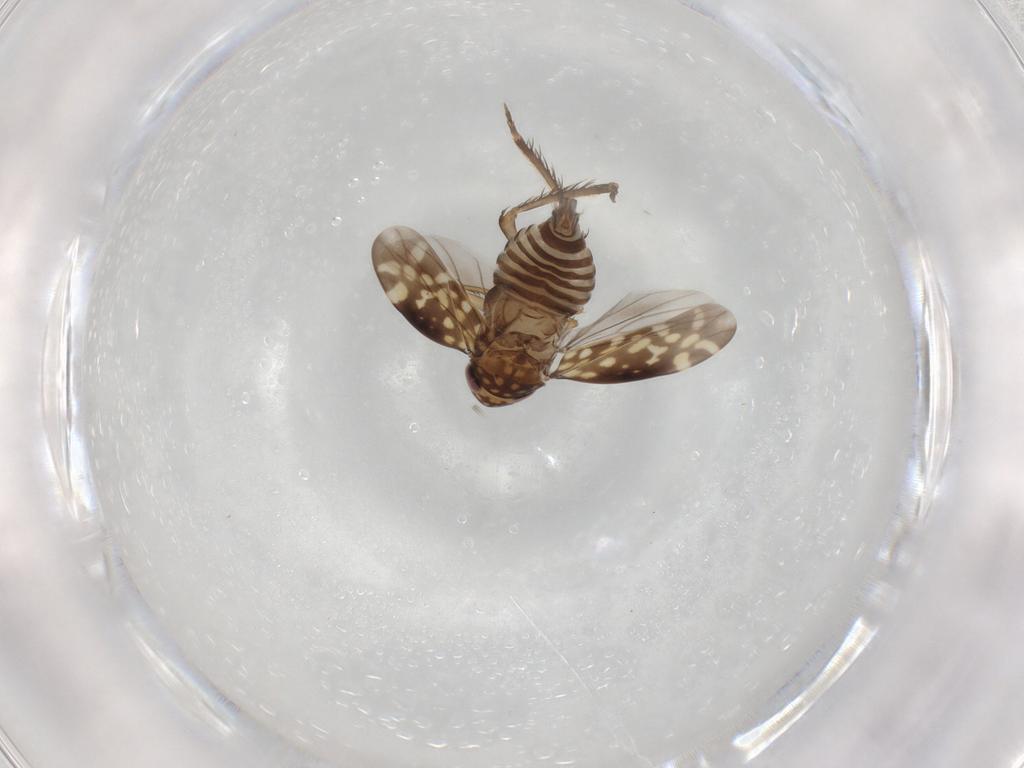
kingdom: Animalia
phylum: Arthropoda
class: Insecta
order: Hemiptera
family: Cicadellidae
